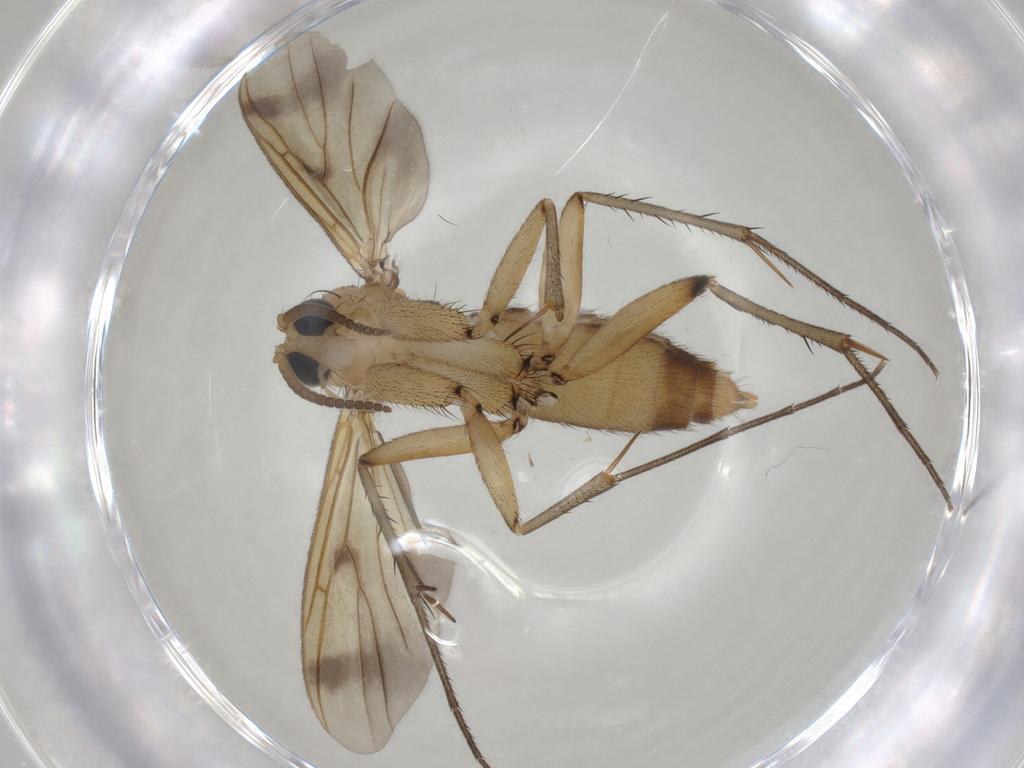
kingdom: Animalia
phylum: Arthropoda
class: Insecta
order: Diptera
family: Mycetophilidae
